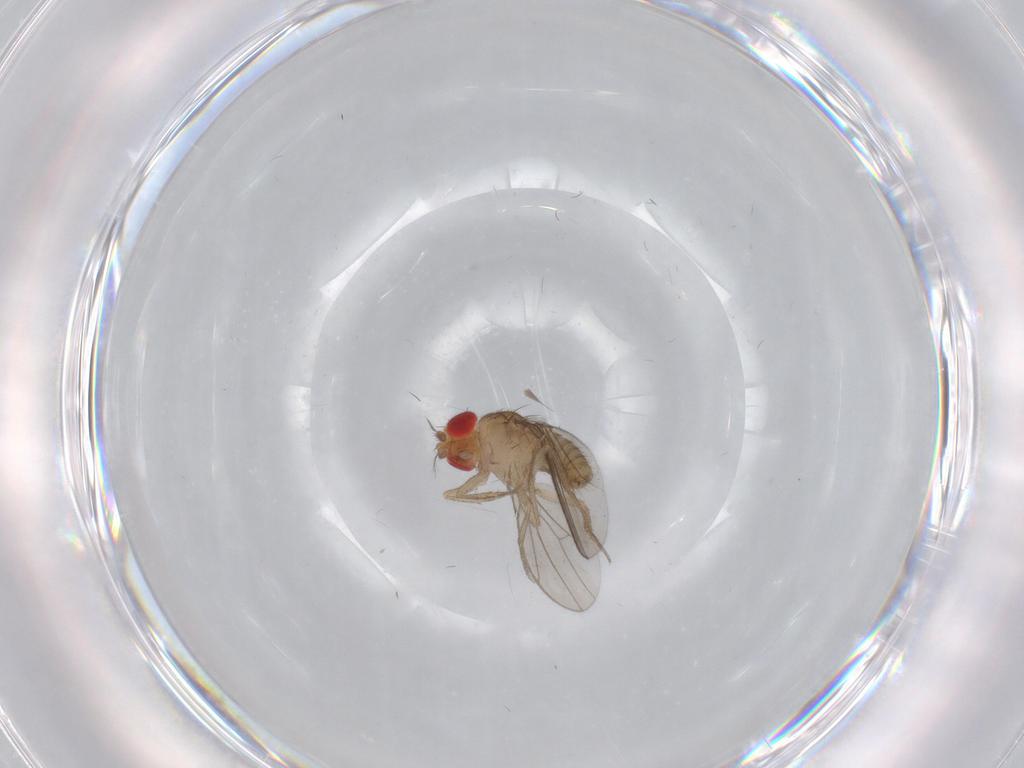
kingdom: Animalia
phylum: Arthropoda
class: Insecta
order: Diptera
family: Drosophilidae
